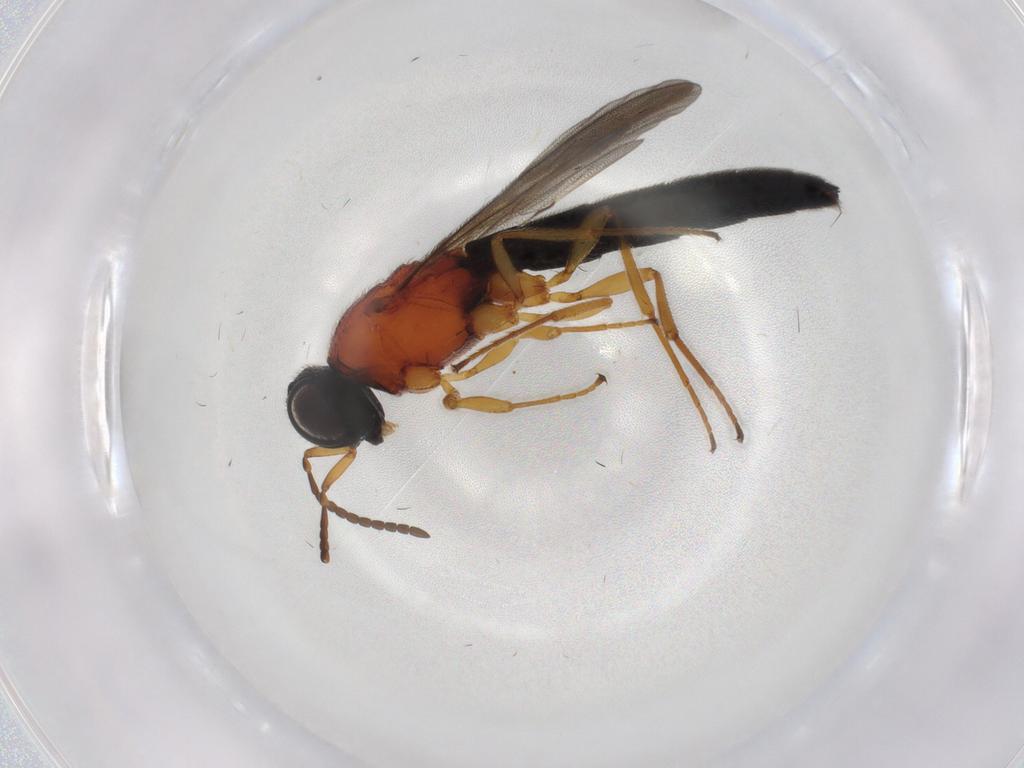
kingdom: Animalia
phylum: Arthropoda
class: Insecta
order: Hymenoptera
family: Scelionidae
